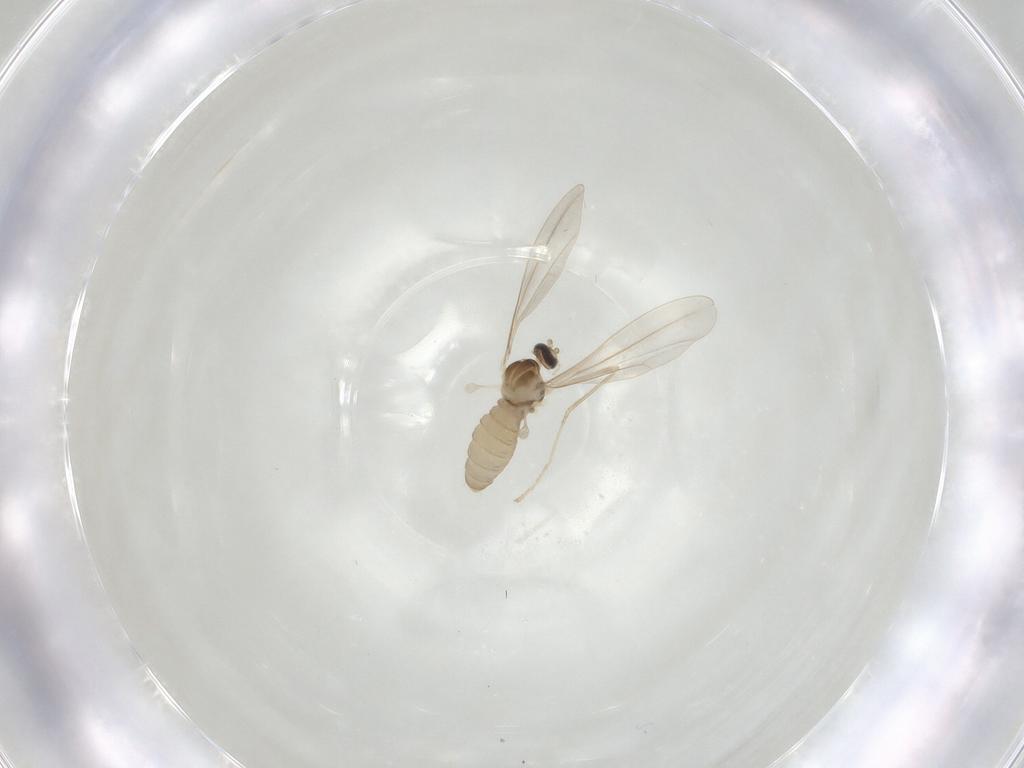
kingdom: Animalia
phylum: Arthropoda
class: Insecta
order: Diptera
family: Cecidomyiidae
